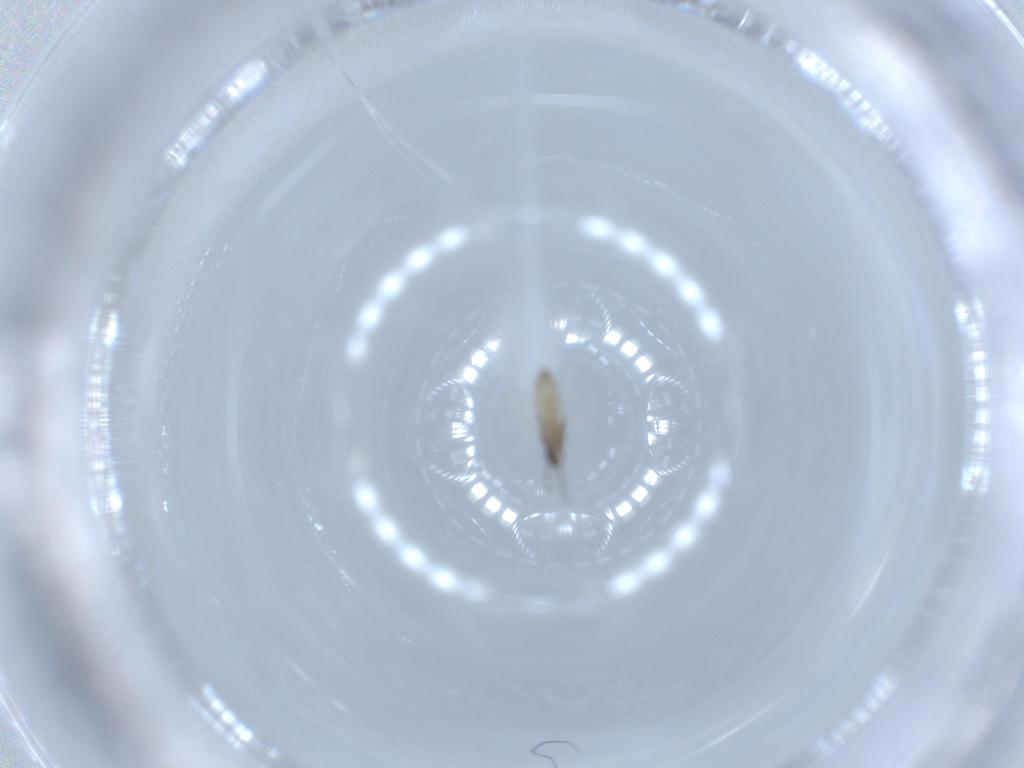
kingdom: Animalia
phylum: Arthropoda
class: Insecta
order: Diptera
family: Cecidomyiidae
